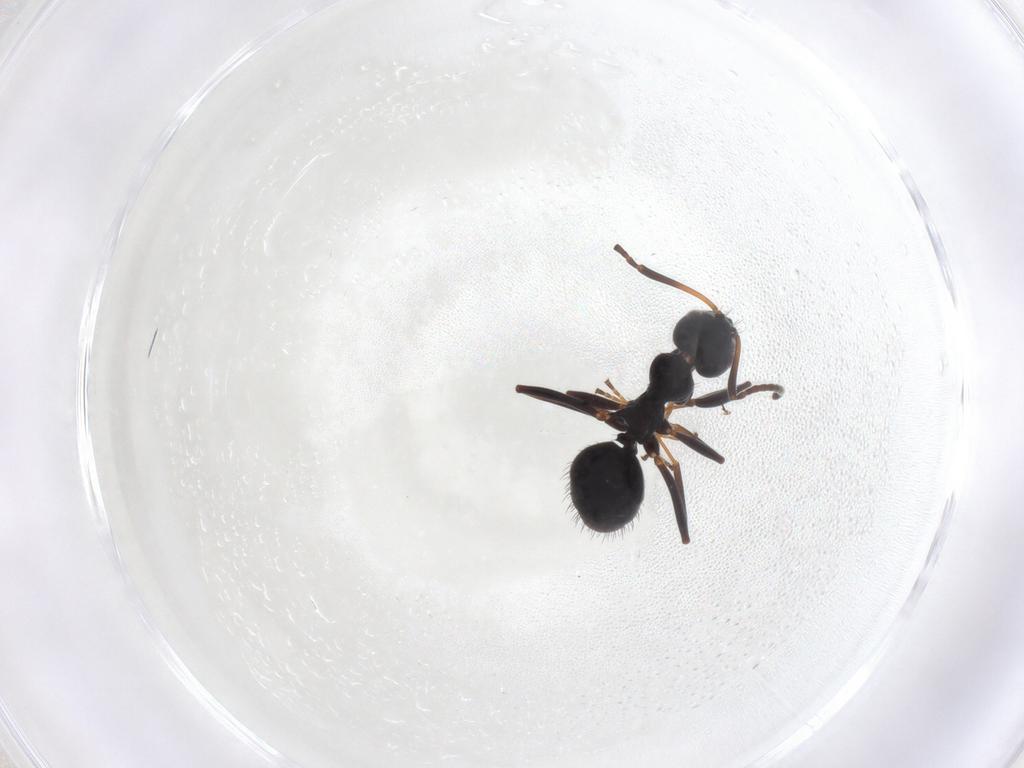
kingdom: Animalia
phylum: Arthropoda
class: Insecta
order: Hymenoptera
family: Formicidae
